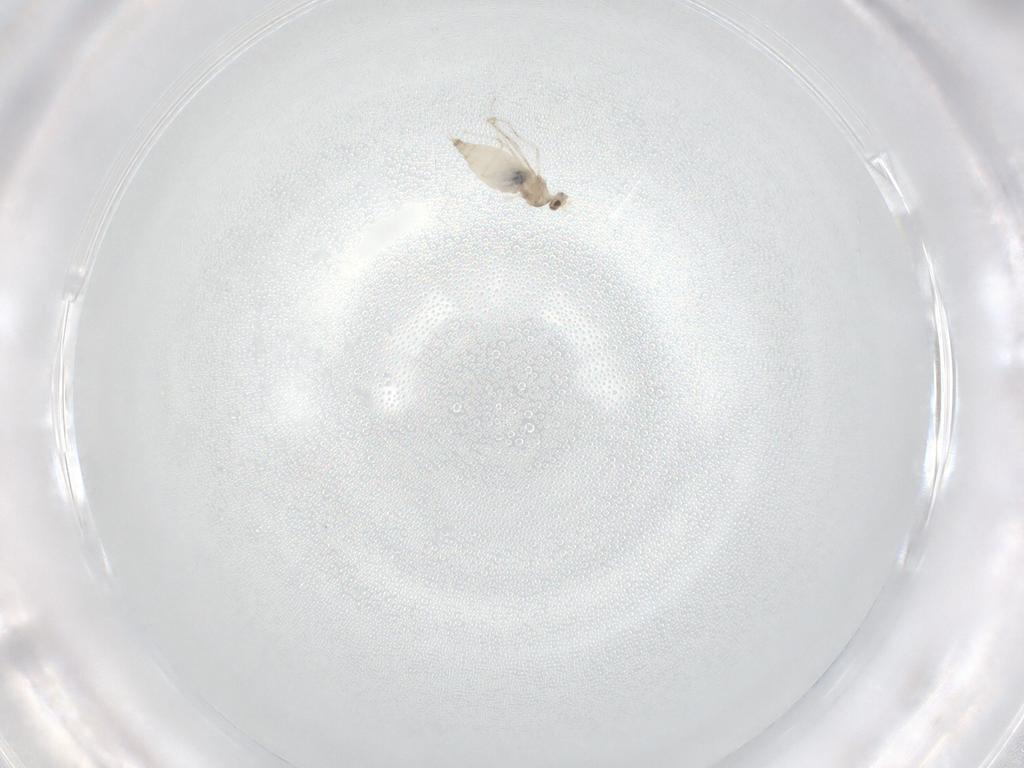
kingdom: Animalia
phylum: Arthropoda
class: Insecta
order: Diptera
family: Cecidomyiidae
